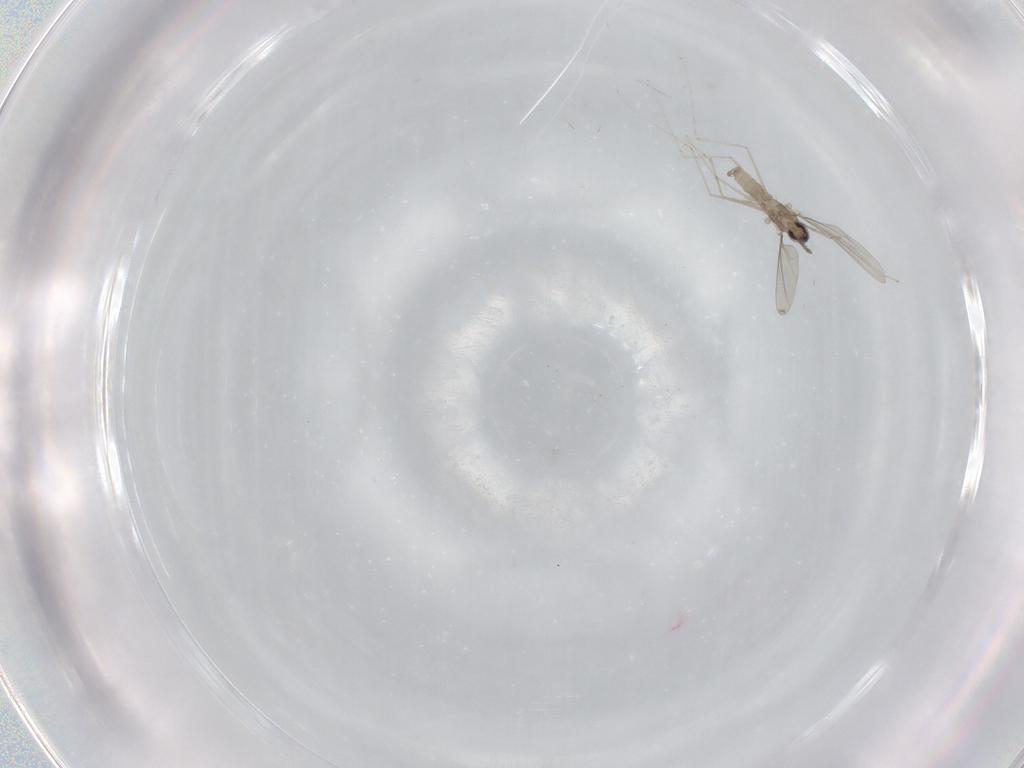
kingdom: Animalia
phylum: Arthropoda
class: Insecta
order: Diptera
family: Cecidomyiidae
